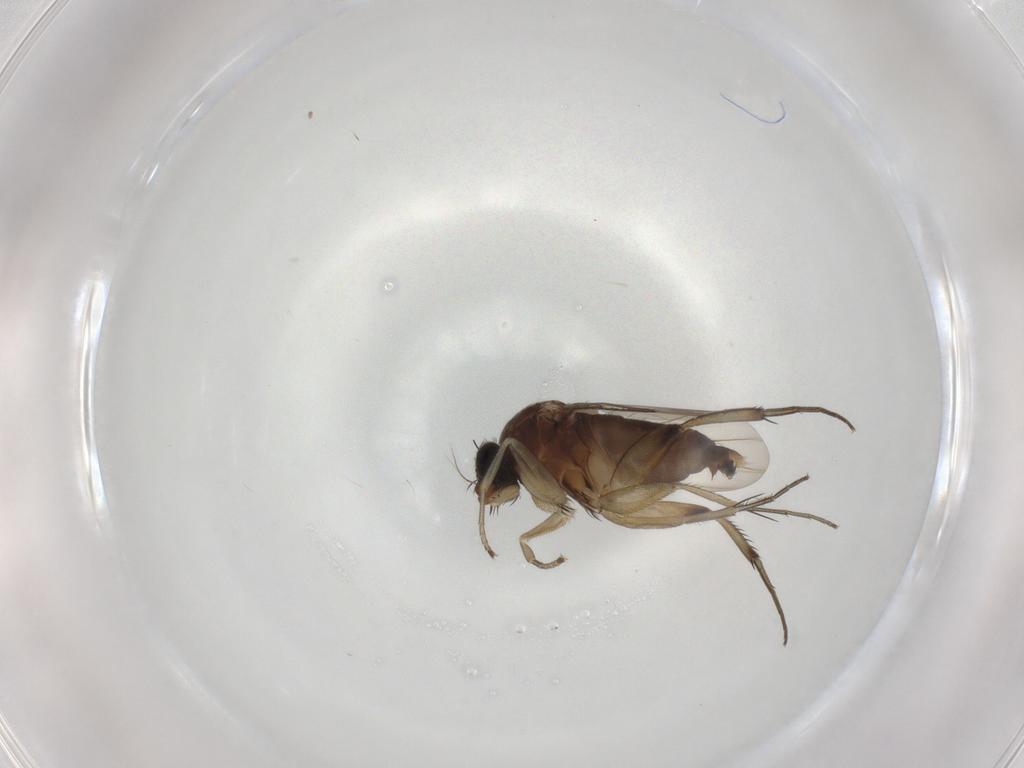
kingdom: Animalia
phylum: Arthropoda
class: Insecta
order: Diptera
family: Phoridae
